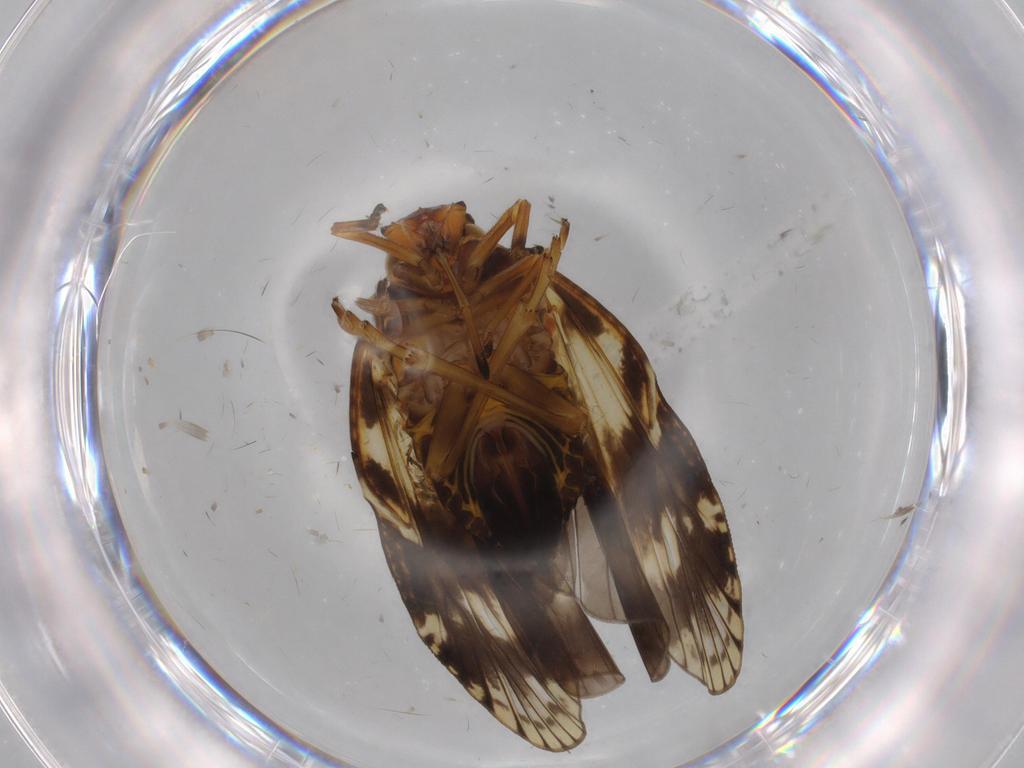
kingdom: Animalia
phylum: Arthropoda
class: Insecta
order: Hemiptera
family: Cixiidae
